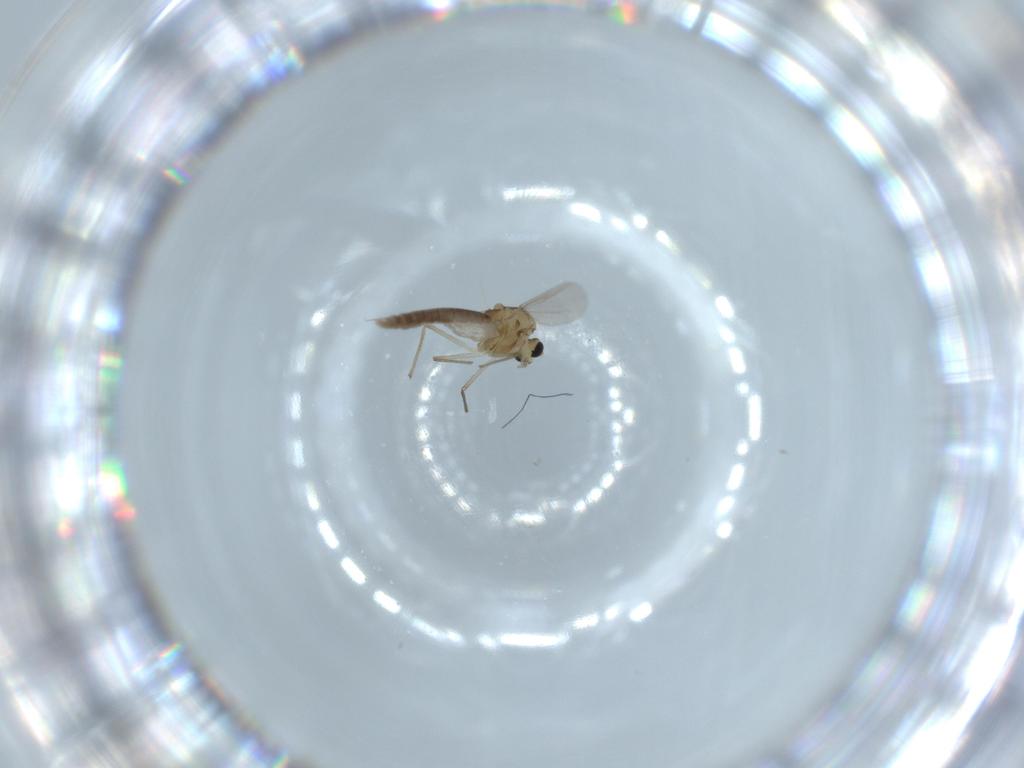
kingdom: Animalia
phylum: Arthropoda
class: Insecta
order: Diptera
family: Chironomidae
